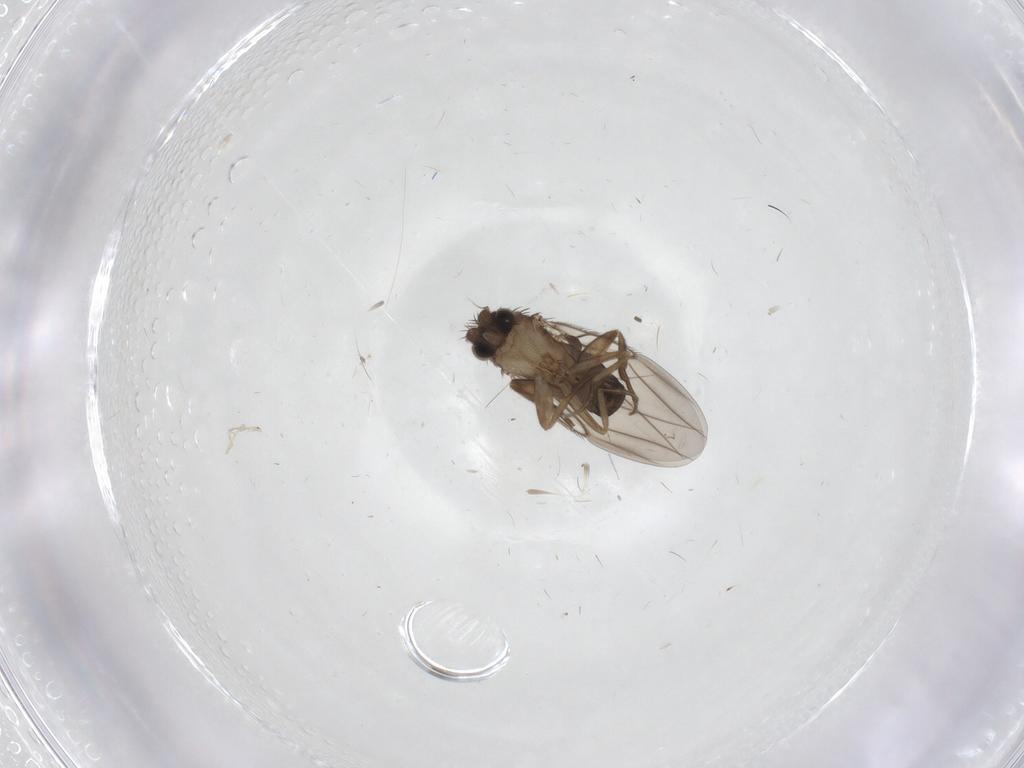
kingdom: Animalia
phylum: Arthropoda
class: Insecta
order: Diptera
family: Phoridae
